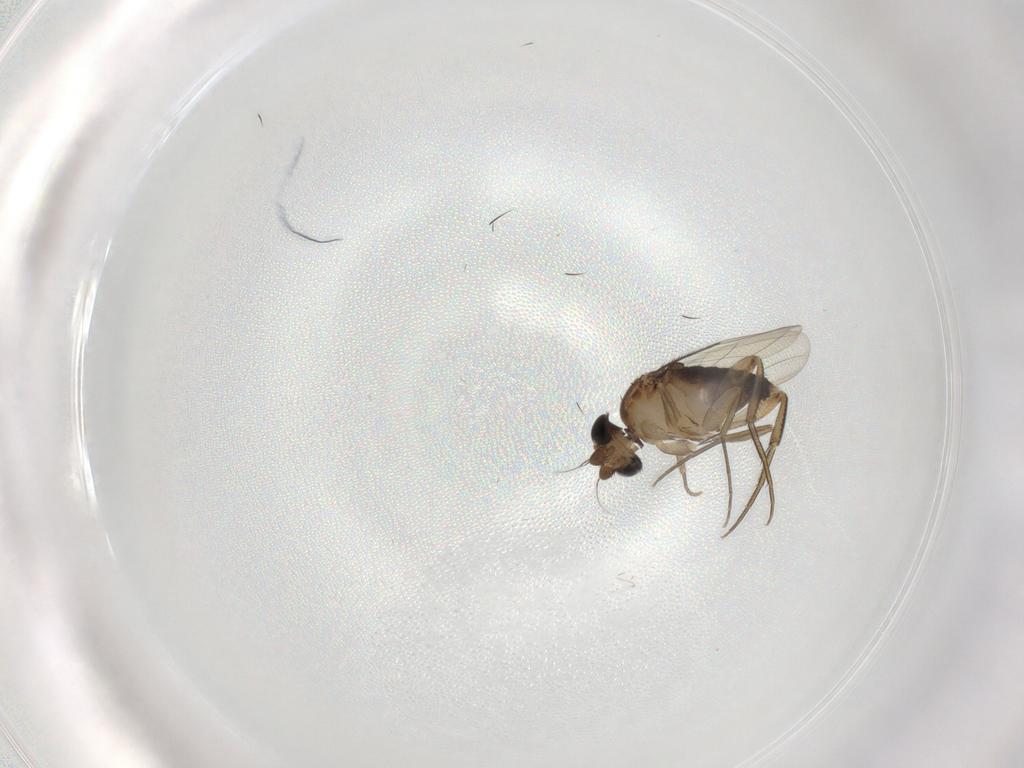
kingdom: Animalia
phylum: Arthropoda
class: Insecta
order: Diptera
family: Phoridae
